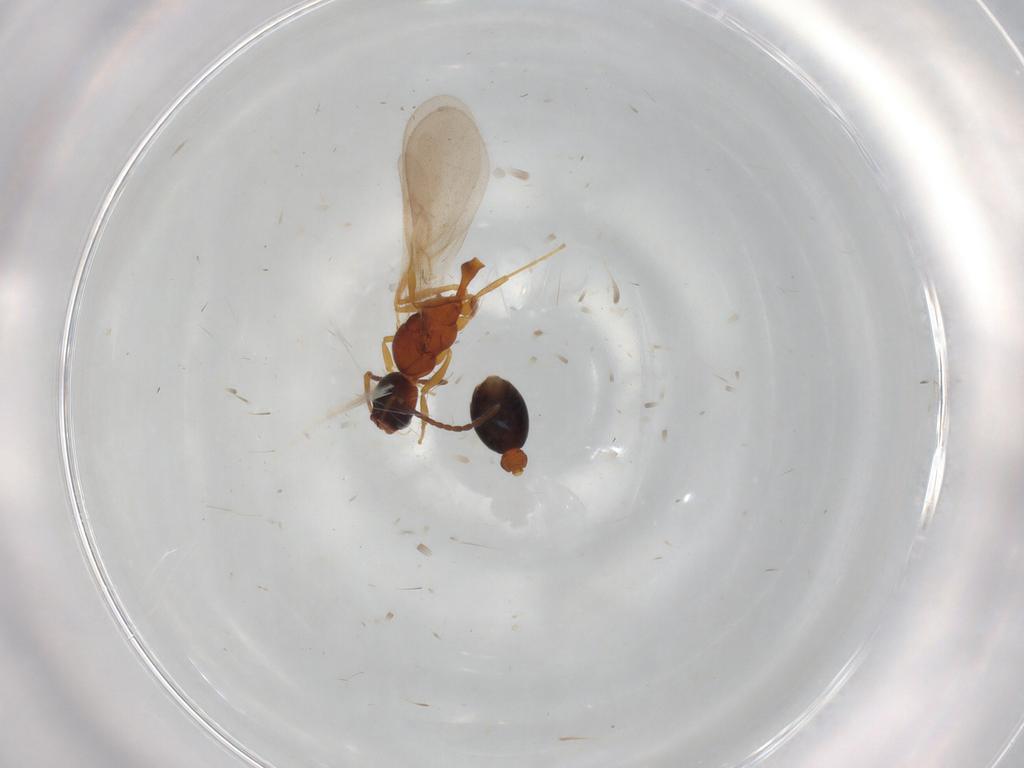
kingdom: Animalia
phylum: Arthropoda
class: Insecta
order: Hymenoptera
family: Formicidae
